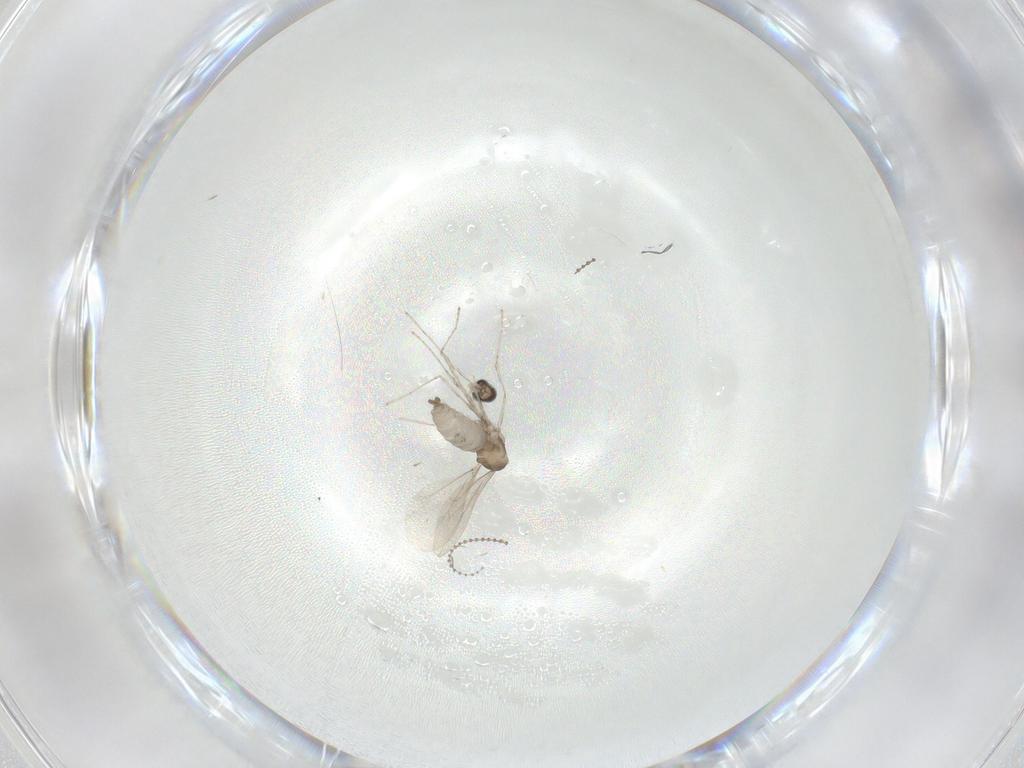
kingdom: Animalia
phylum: Arthropoda
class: Insecta
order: Diptera
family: Cecidomyiidae
